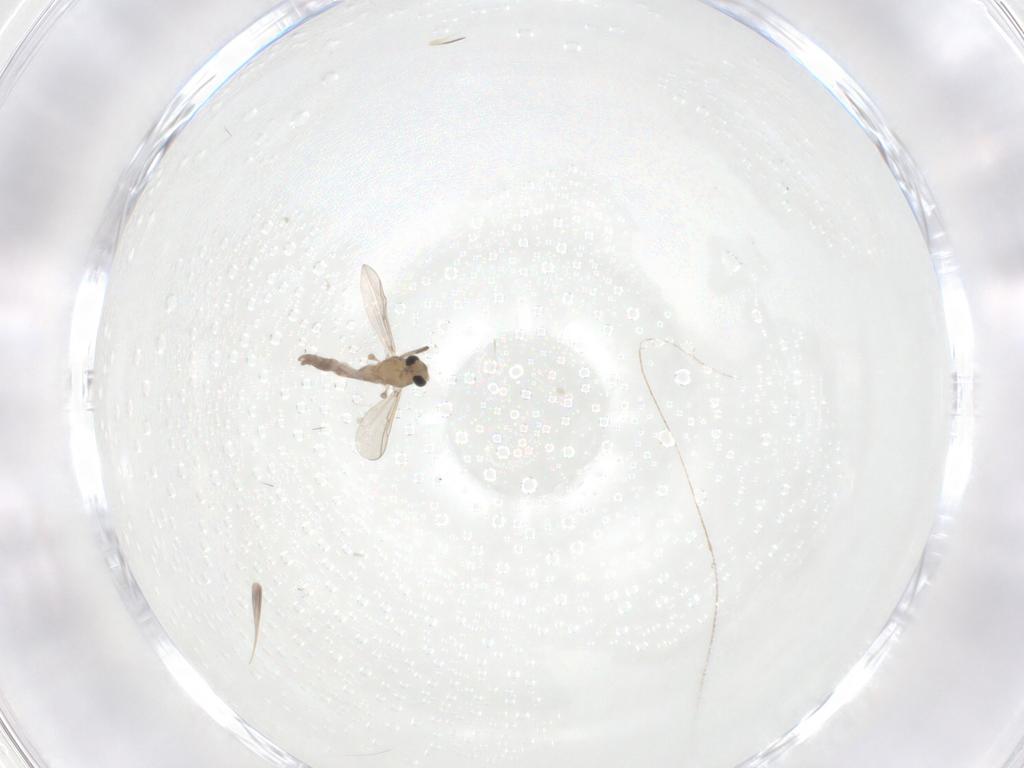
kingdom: Animalia
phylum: Arthropoda
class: Insecta
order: Diptera
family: Chironomidae
